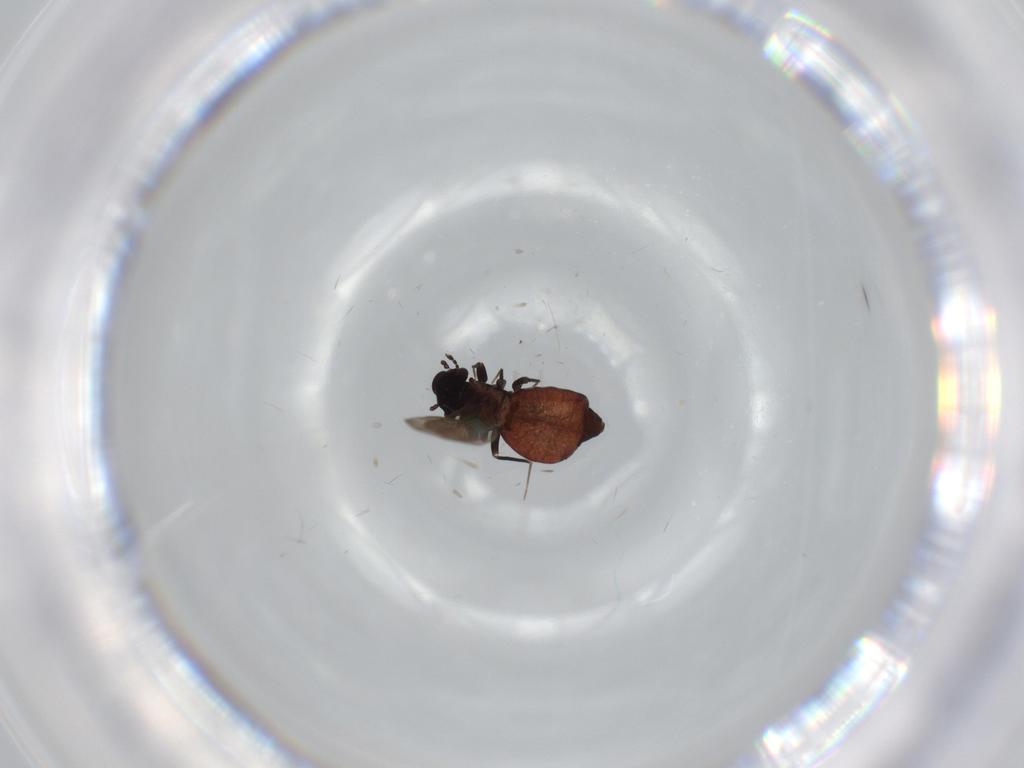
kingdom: Animalia
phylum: Arthropoda
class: Insecta
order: Psocodea
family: Lepidopsocidae
